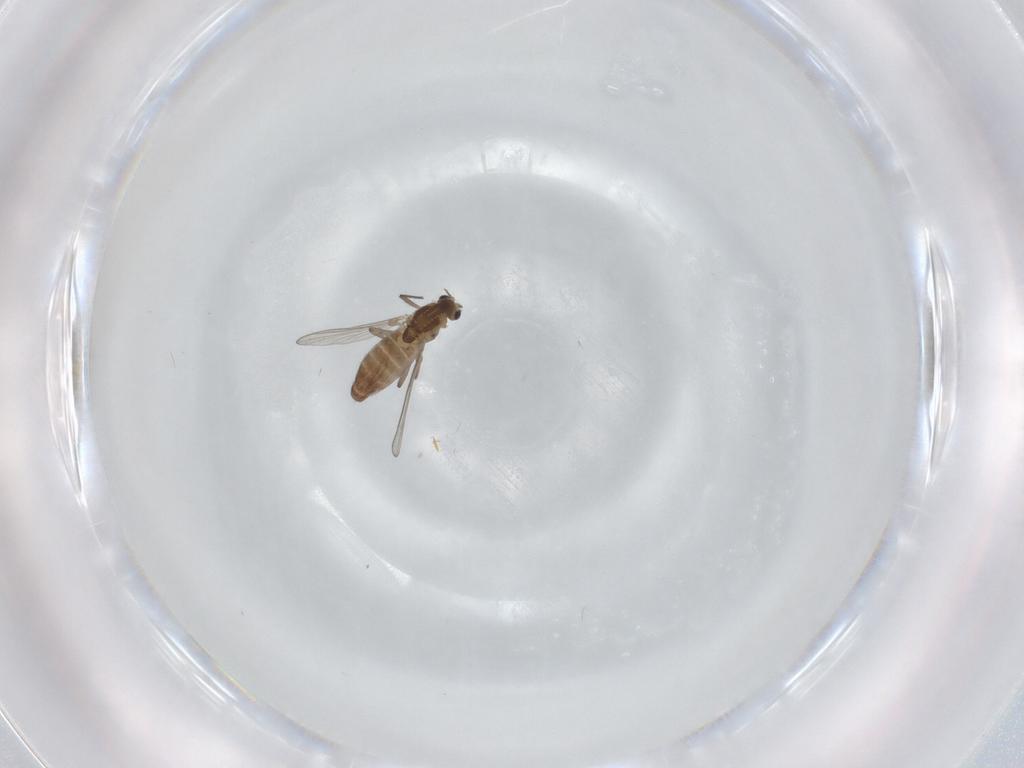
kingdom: Animalia
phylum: Arthropoda
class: Insecta
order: Diptera
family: Chironomidae
